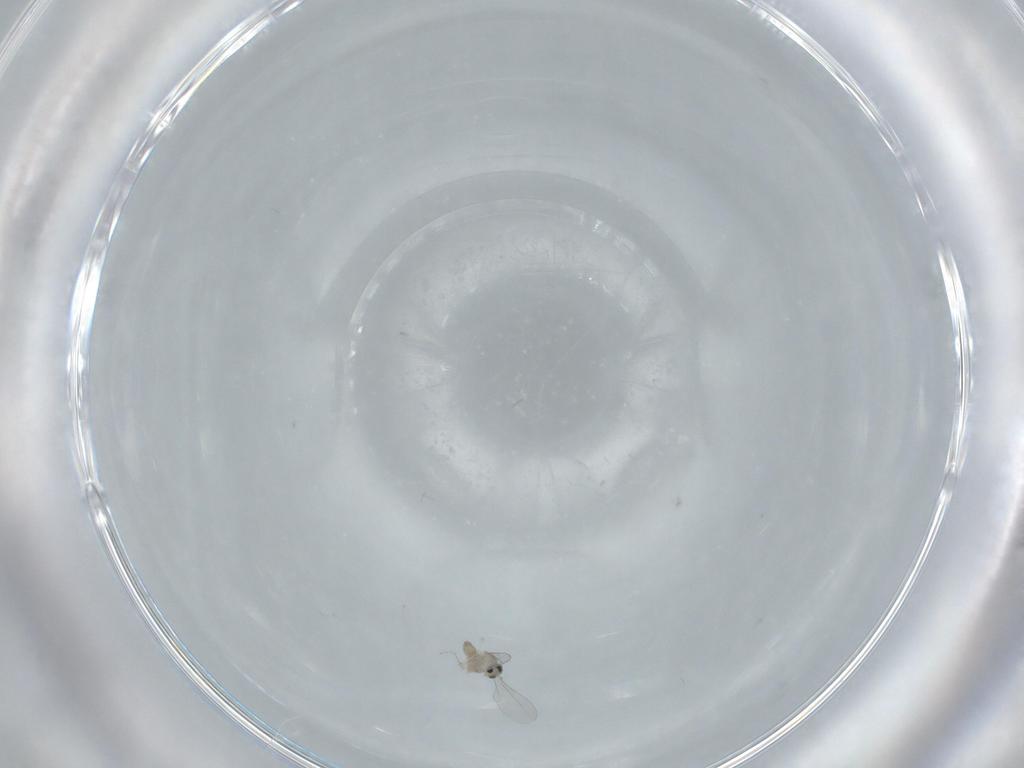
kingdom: Animalia
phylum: Arthropoda
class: Insecta
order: Diptera
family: Cecidomyiidae
